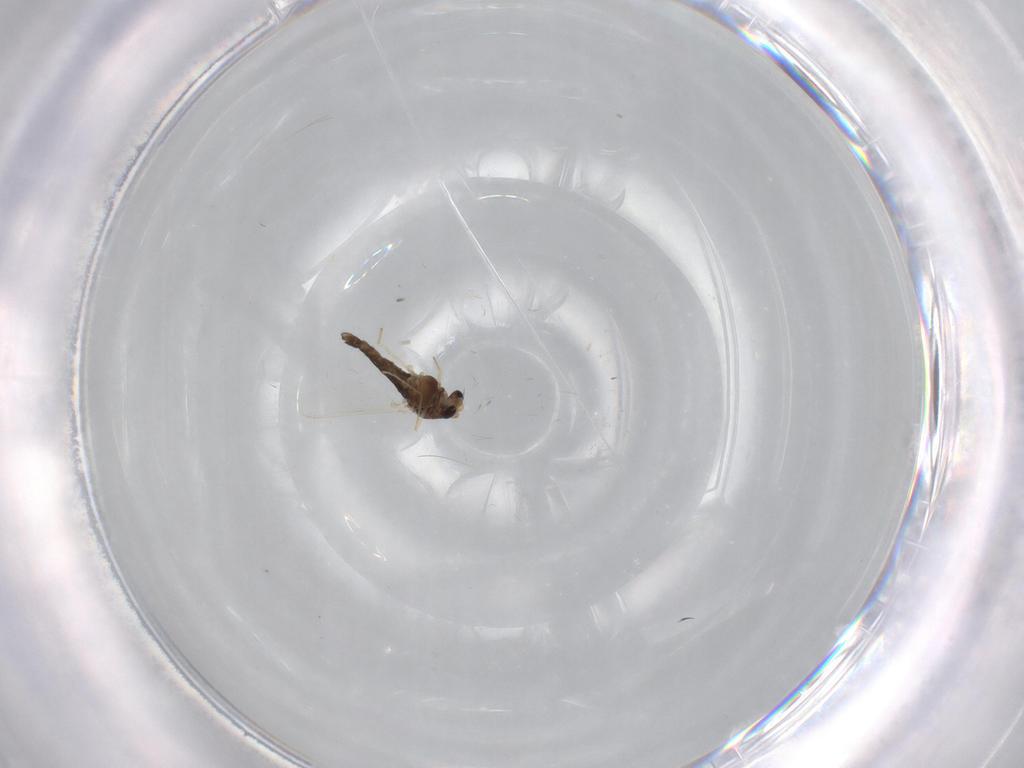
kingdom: Animalia
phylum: Arthropoda
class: Insecta
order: Diptera
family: Chironomidae
